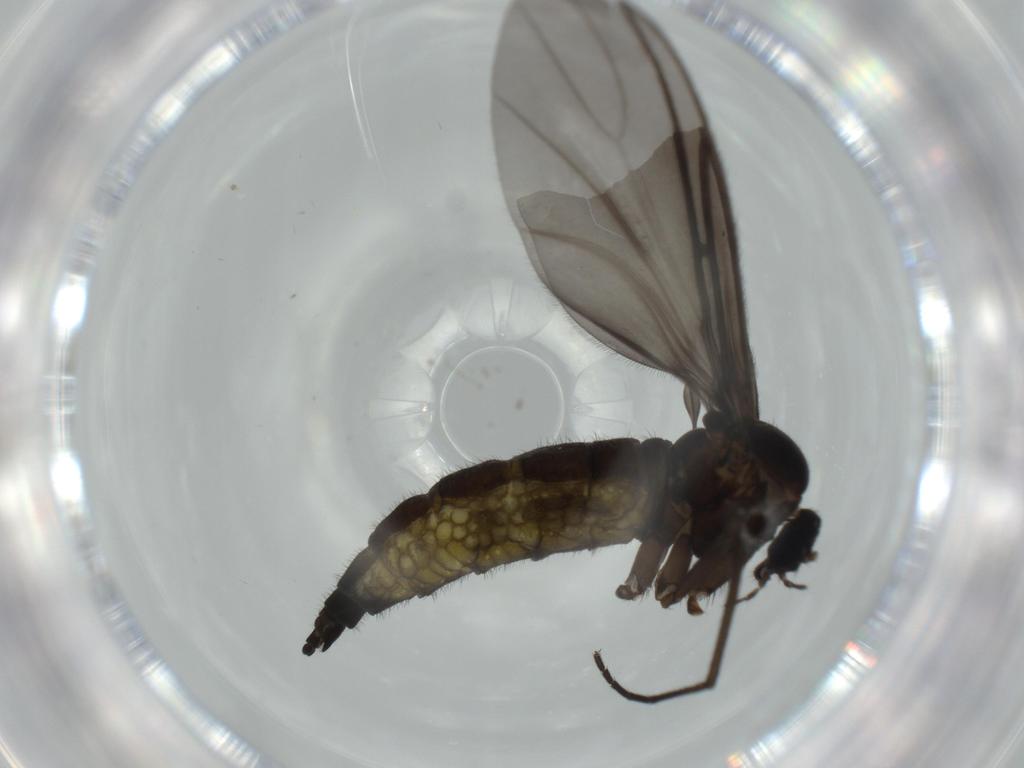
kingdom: Animalia
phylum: Arthropoda
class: Insecta
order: Diptera
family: Sciaridae
